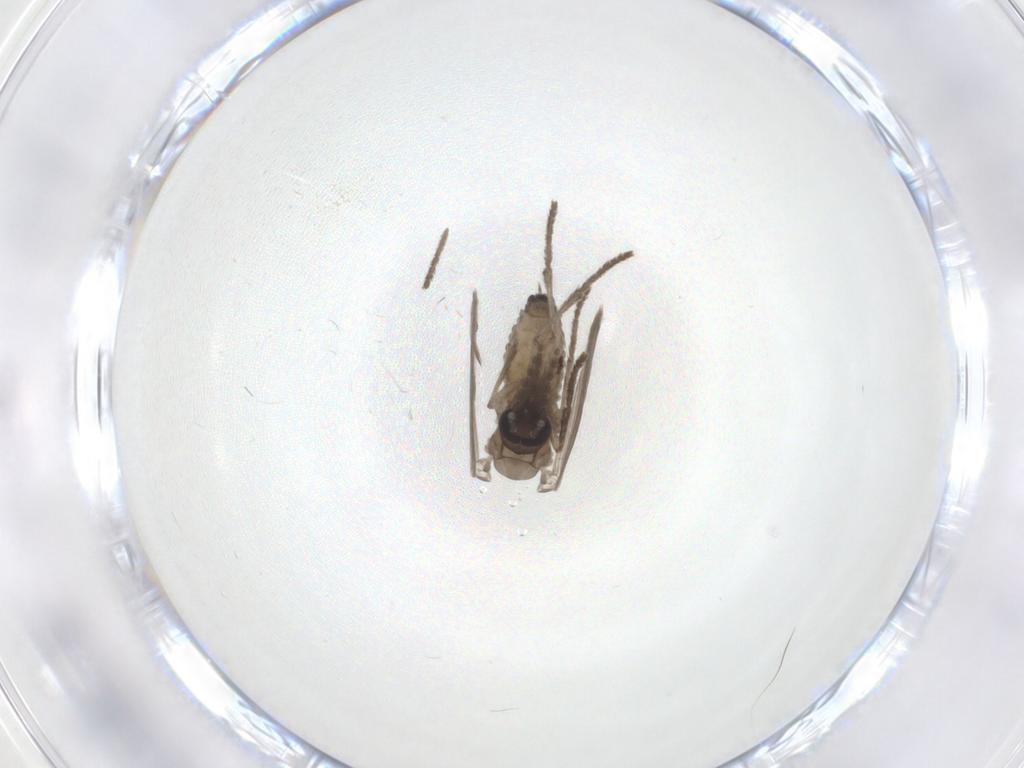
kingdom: Animalia
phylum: Arthropoda
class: Insecta
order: Diptera
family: Psychodidae
